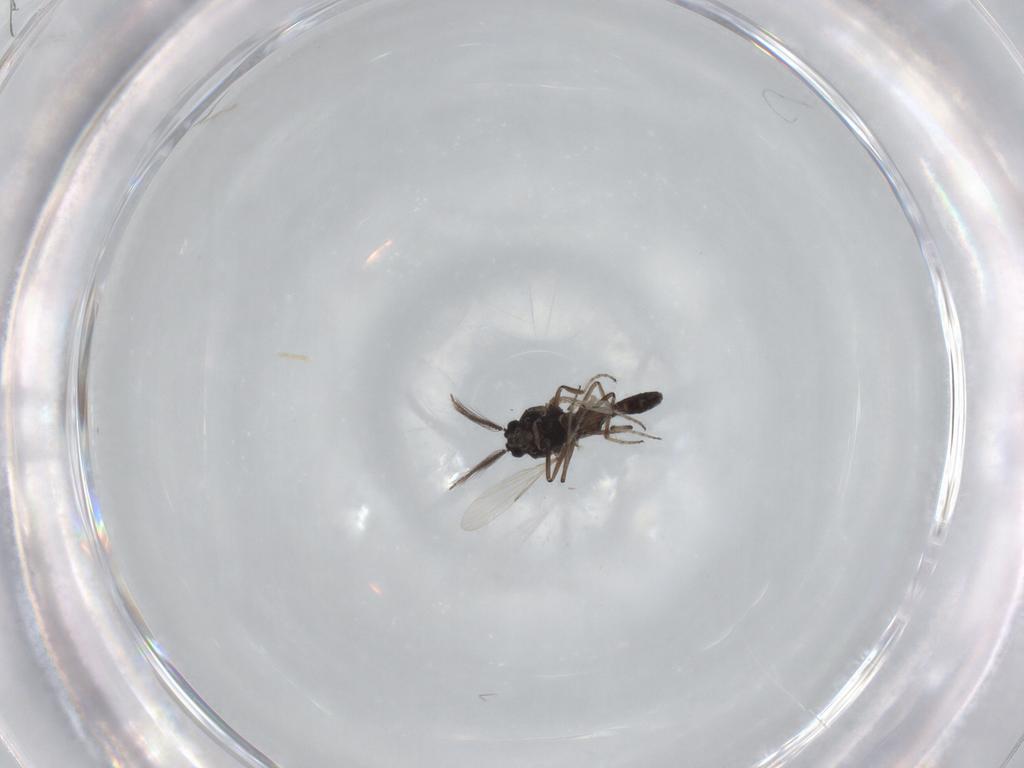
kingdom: Animalia
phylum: Arthropoda
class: Insecta
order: Diptera
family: Ceratopogonidae
